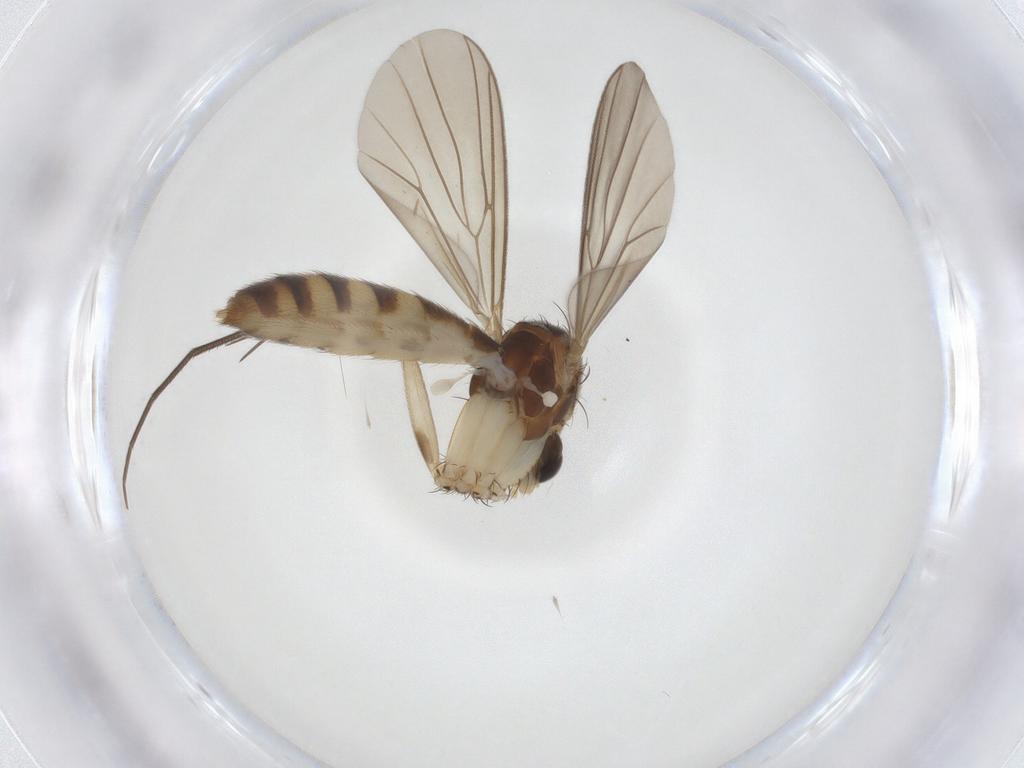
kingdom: Animalia
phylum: Arthropoda
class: Insecta
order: Diptera
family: Mycetophilidae
